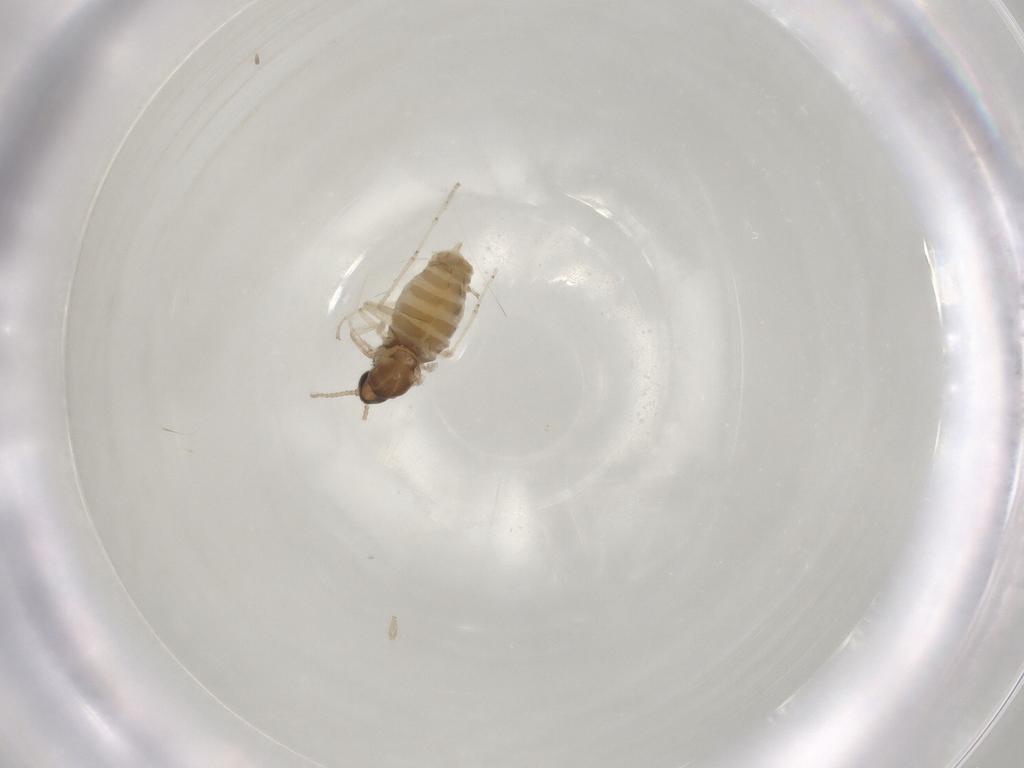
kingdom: Animalia
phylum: Arthropoda
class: Insecta
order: Diptera
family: Cecidomyiidae
